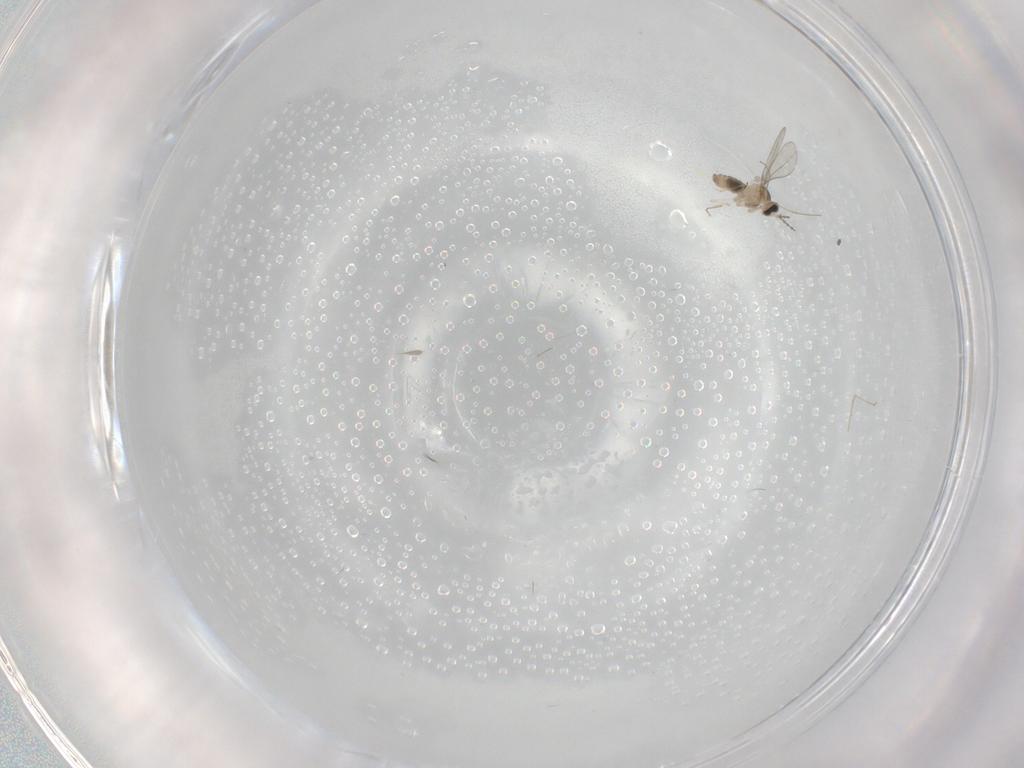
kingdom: Animalia
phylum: Arthropoda
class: Insecta
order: Diptera
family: Cecidomyiidae
